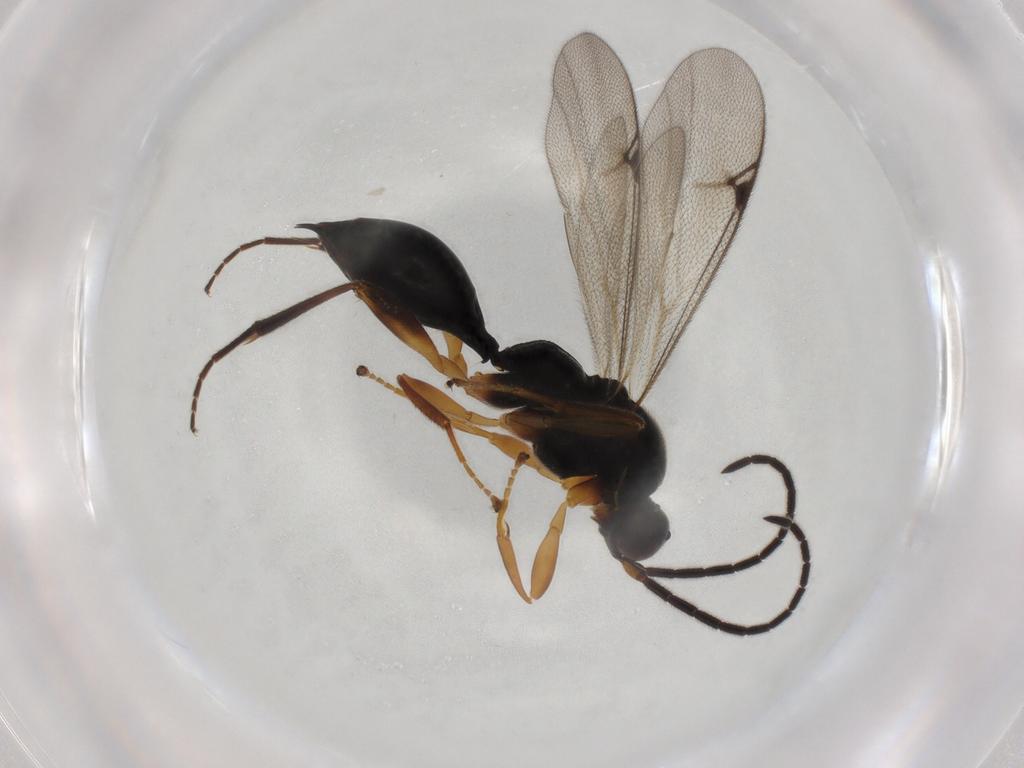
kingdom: Animalia
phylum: Arthropoda
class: Insecta
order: Hymenoptera
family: Proctotrupidae
